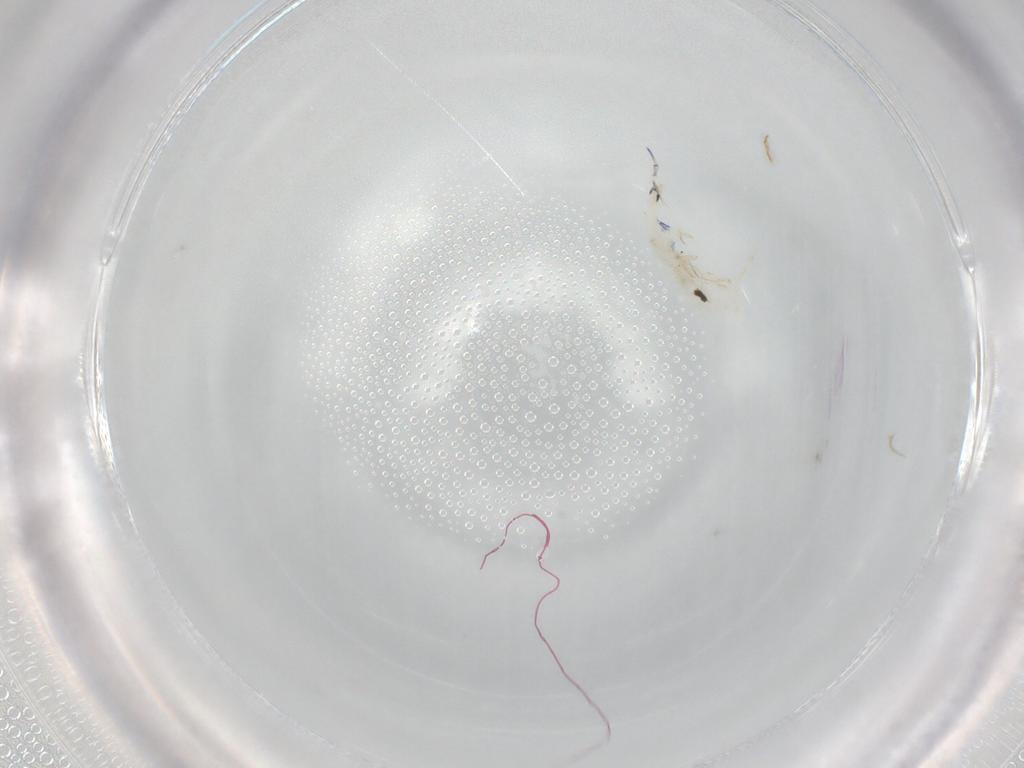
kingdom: Animalia
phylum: Arthropoda
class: Collembola
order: Entomobryomorpha
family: Entomobryidae
